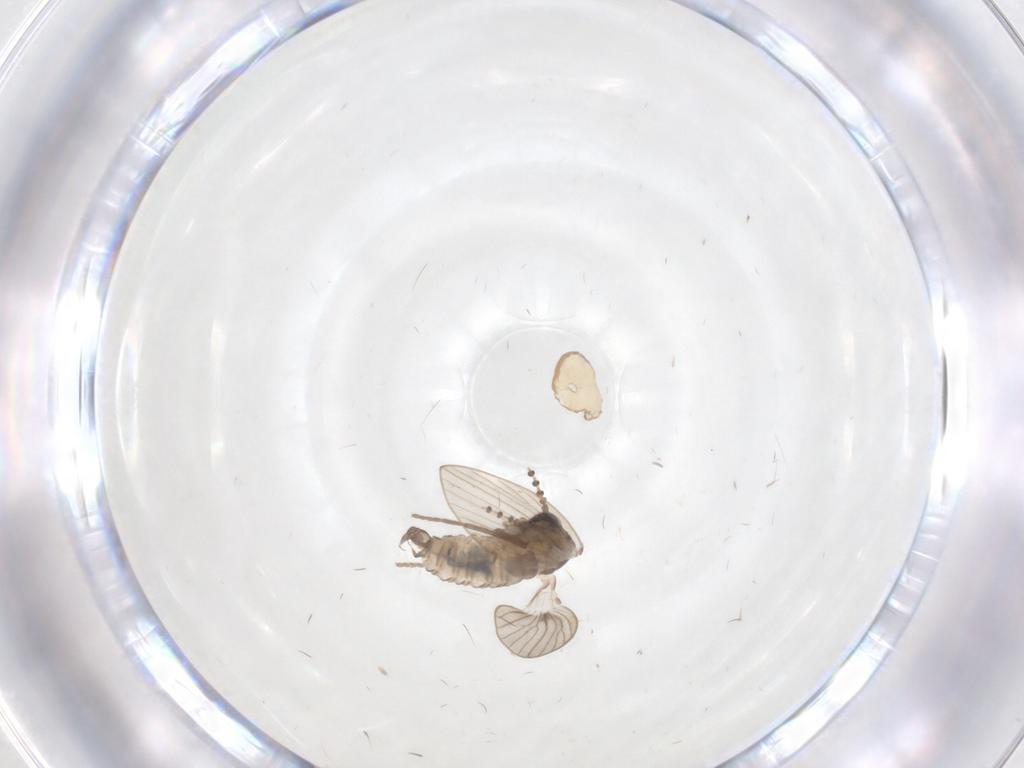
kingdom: Animalia
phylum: Arthropoda
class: Insecta
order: Diptera
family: Psychodidae
